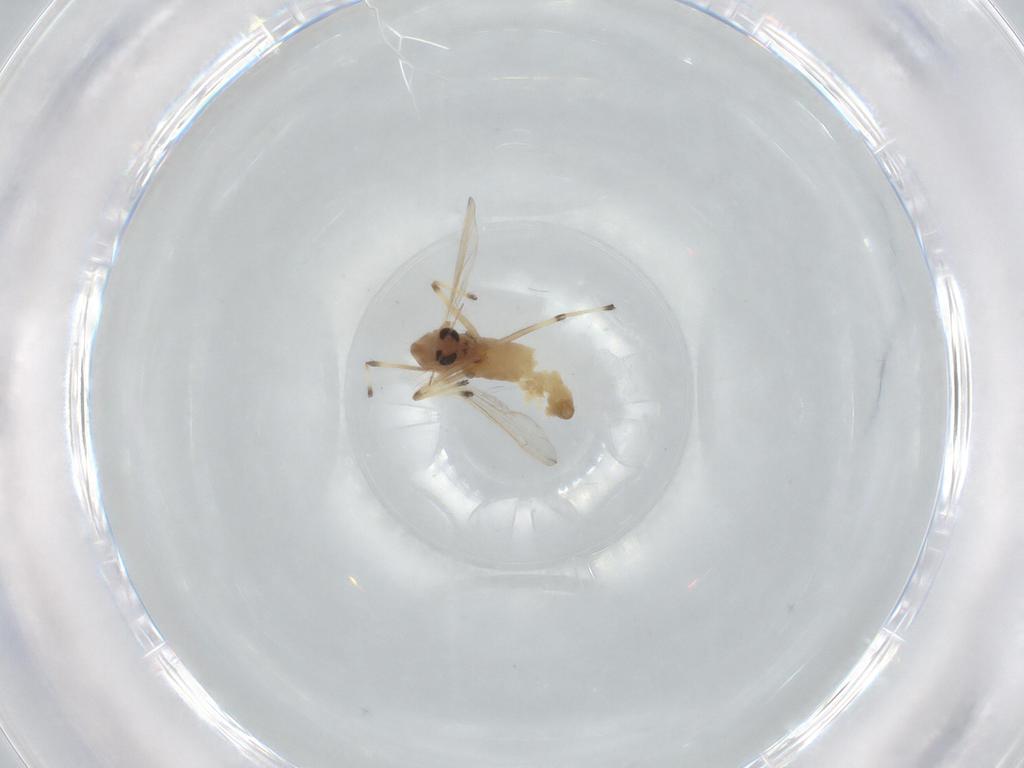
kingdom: Animalia
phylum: Arthropoda
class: Insecta
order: Diptera
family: Chironomidae
